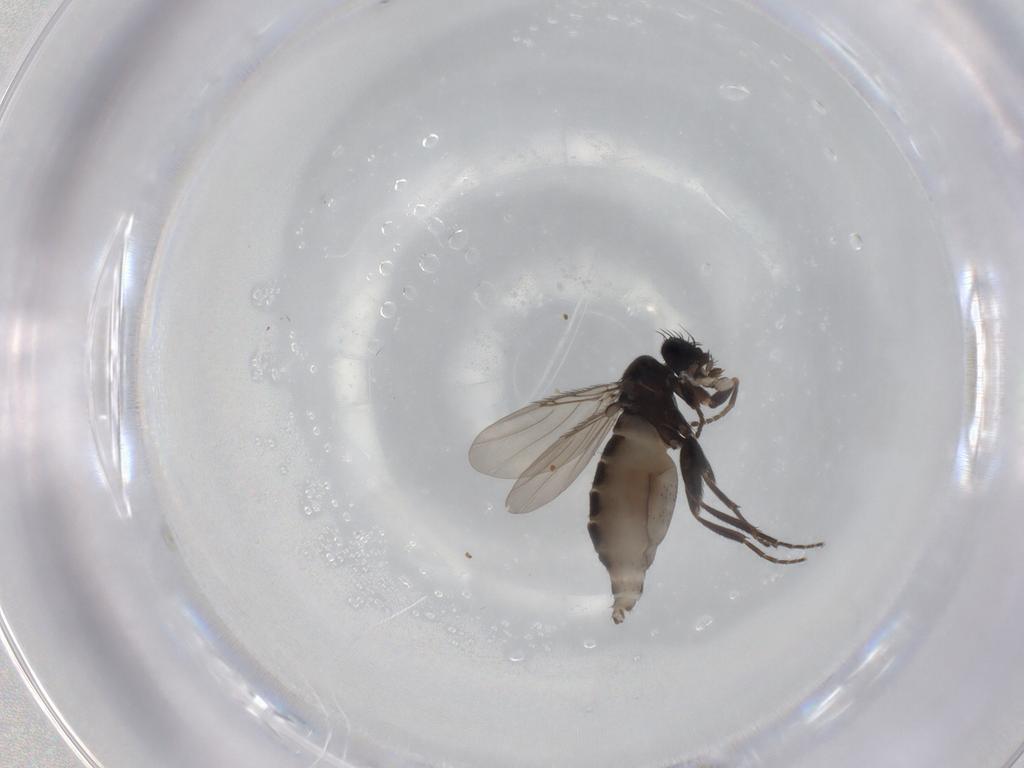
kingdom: Animalia
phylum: Arthropoda
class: Insecta
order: Diptera
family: Phoridae
